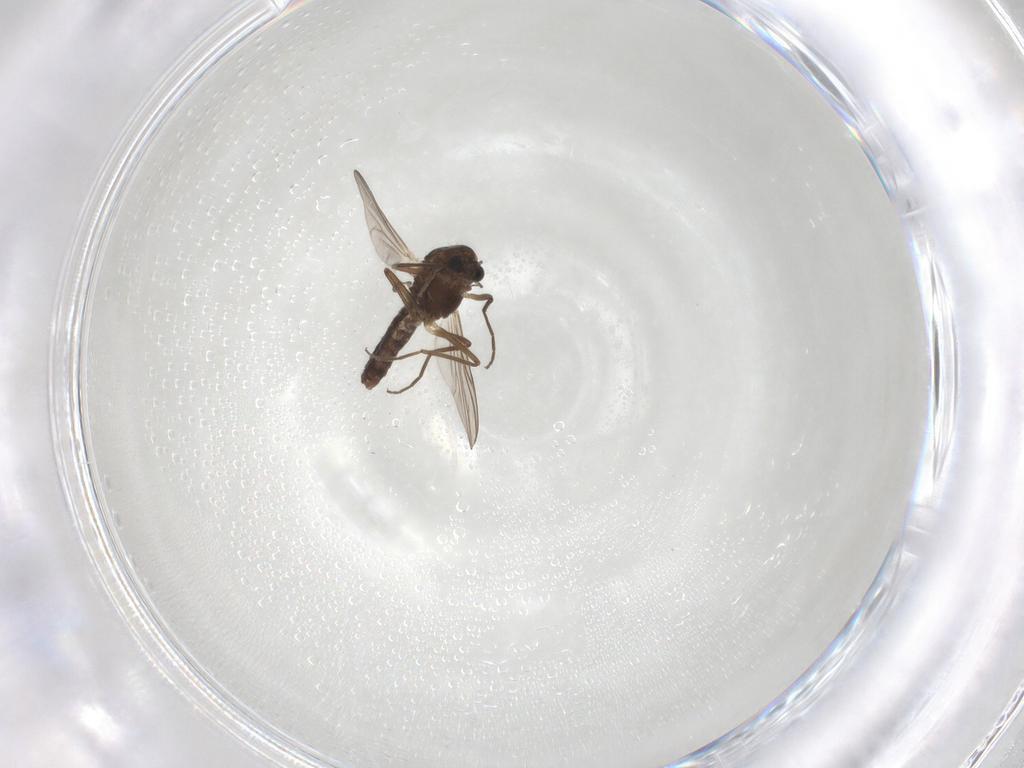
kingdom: Animalia
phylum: Arthropoda
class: Insecta
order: Diptera
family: Chironomidae
